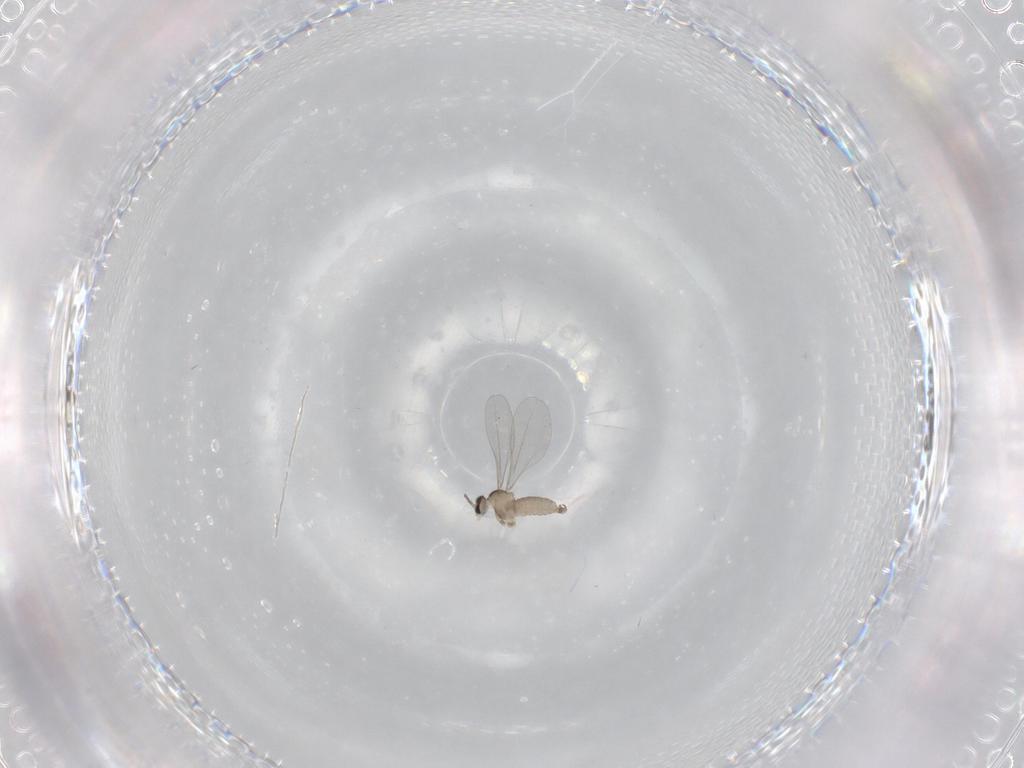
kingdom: Animalia
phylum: Arthropoda
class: Insecta
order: Diptera
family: Cecidomyiidae
